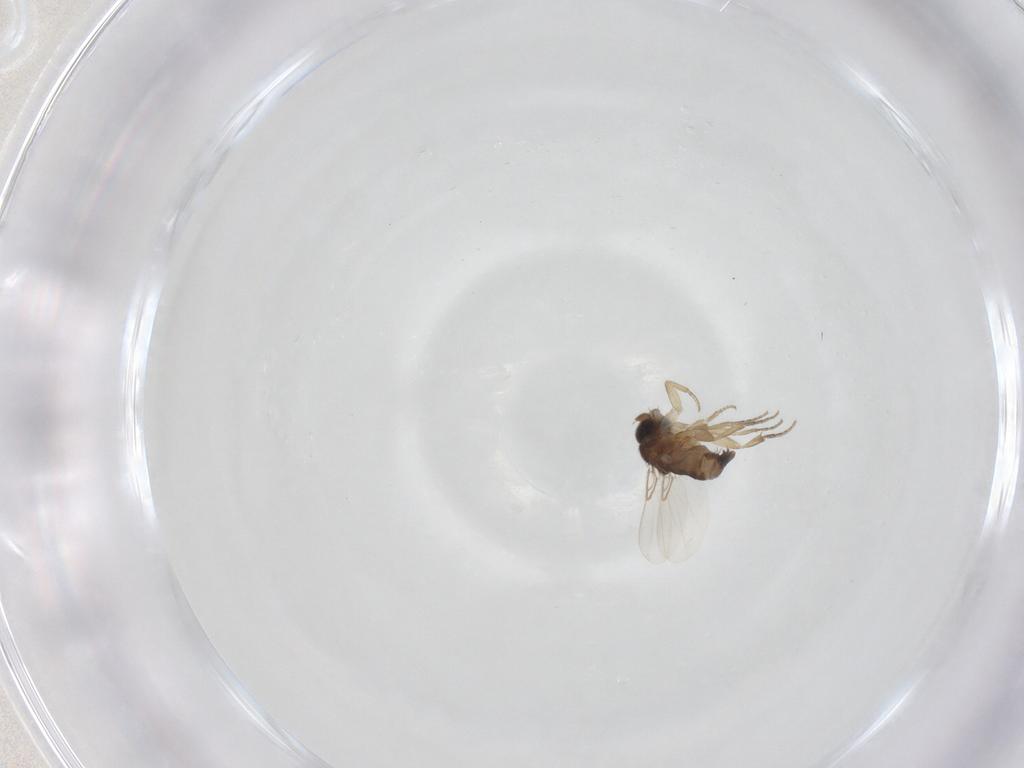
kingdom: Animalia
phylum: Arthropoda
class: Insecta
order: Diptera
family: Phoridae
